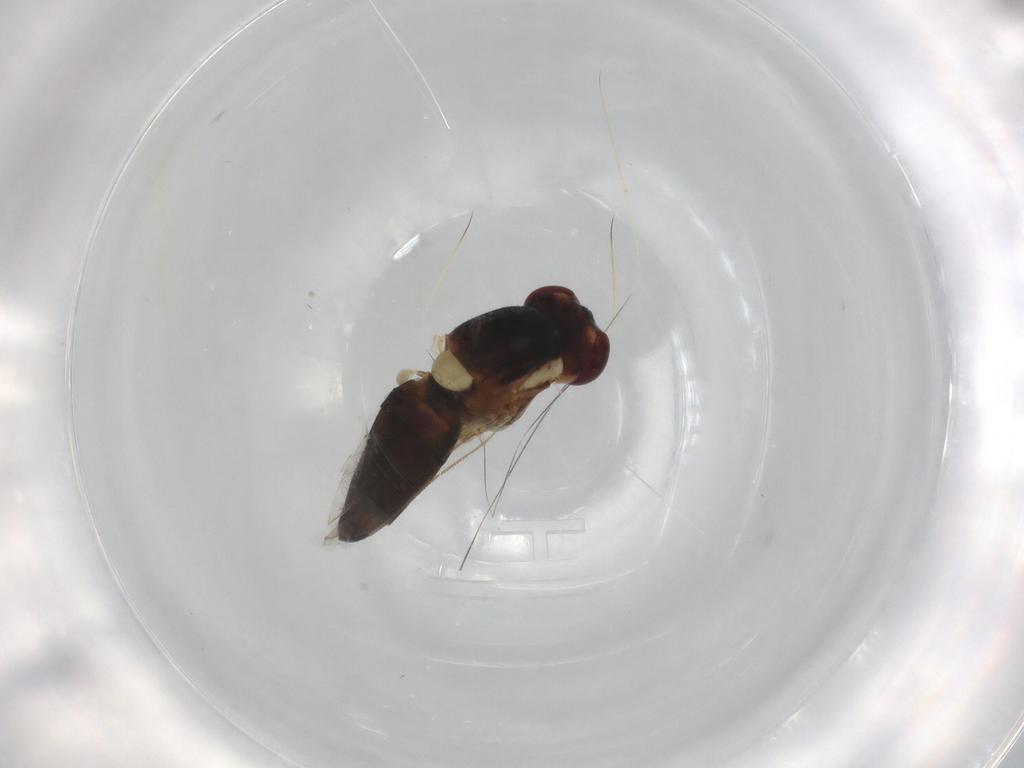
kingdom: Animalia
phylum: Arthropoda
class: Insecta
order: Diptera
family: Chloropidae
